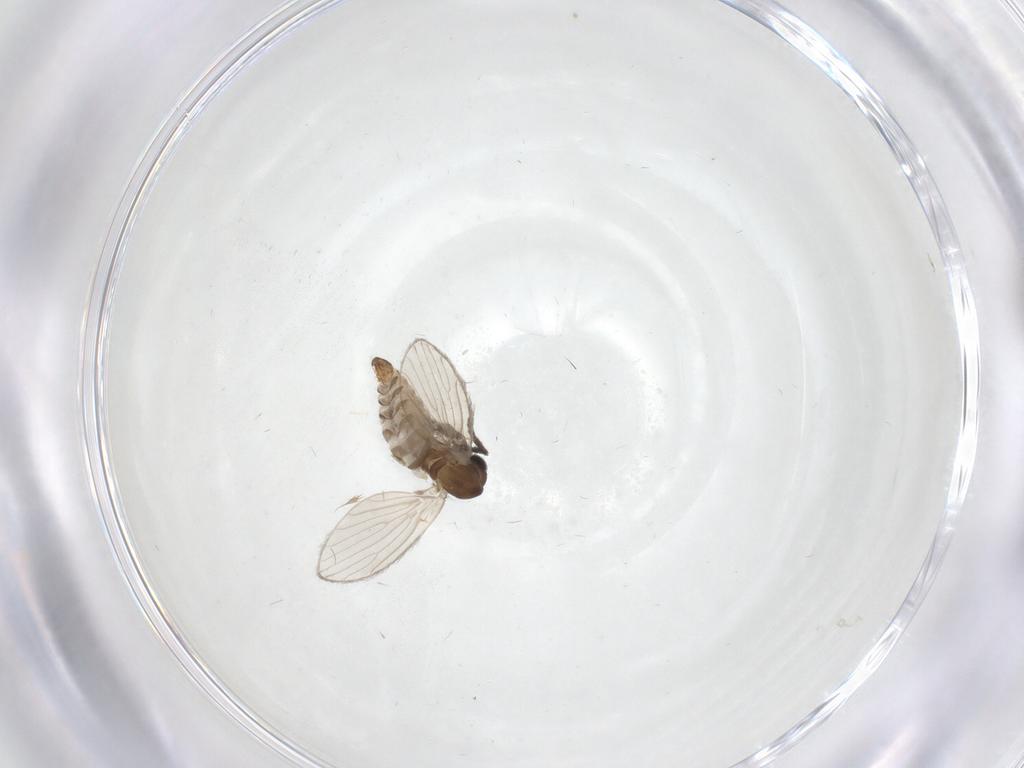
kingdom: Animalia
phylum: Arthropoda
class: Insecta
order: Diptera
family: Psychodidae
